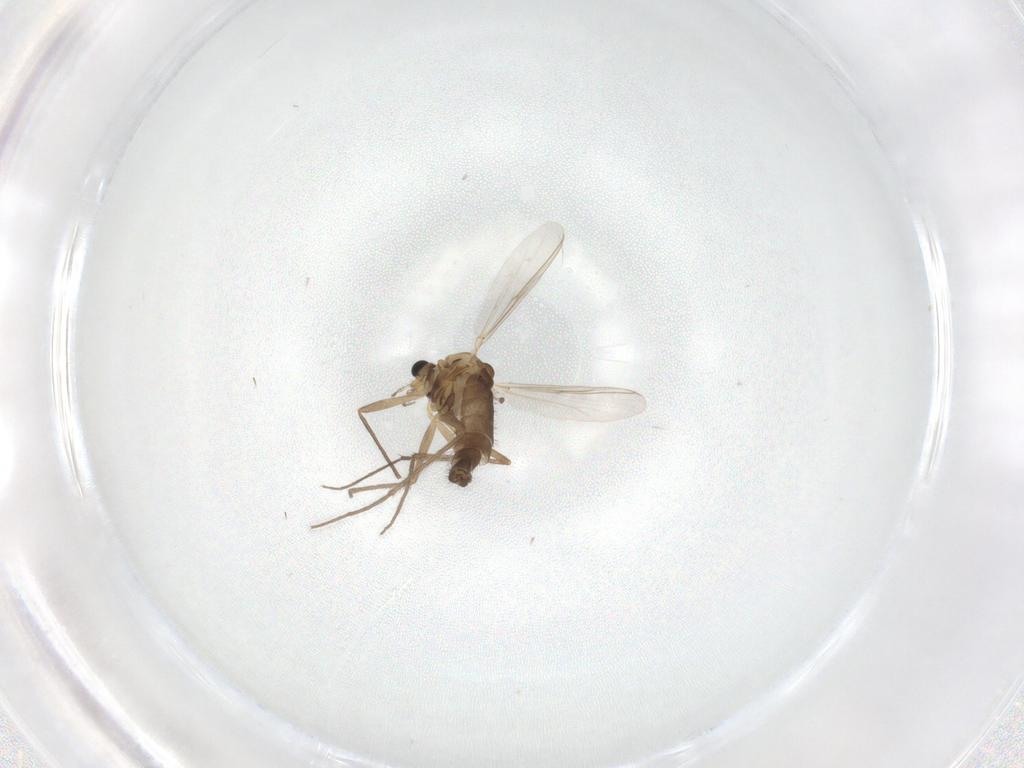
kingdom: Animalia
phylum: Arthropoda
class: Insecta
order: Diptera
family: Chironomidae
